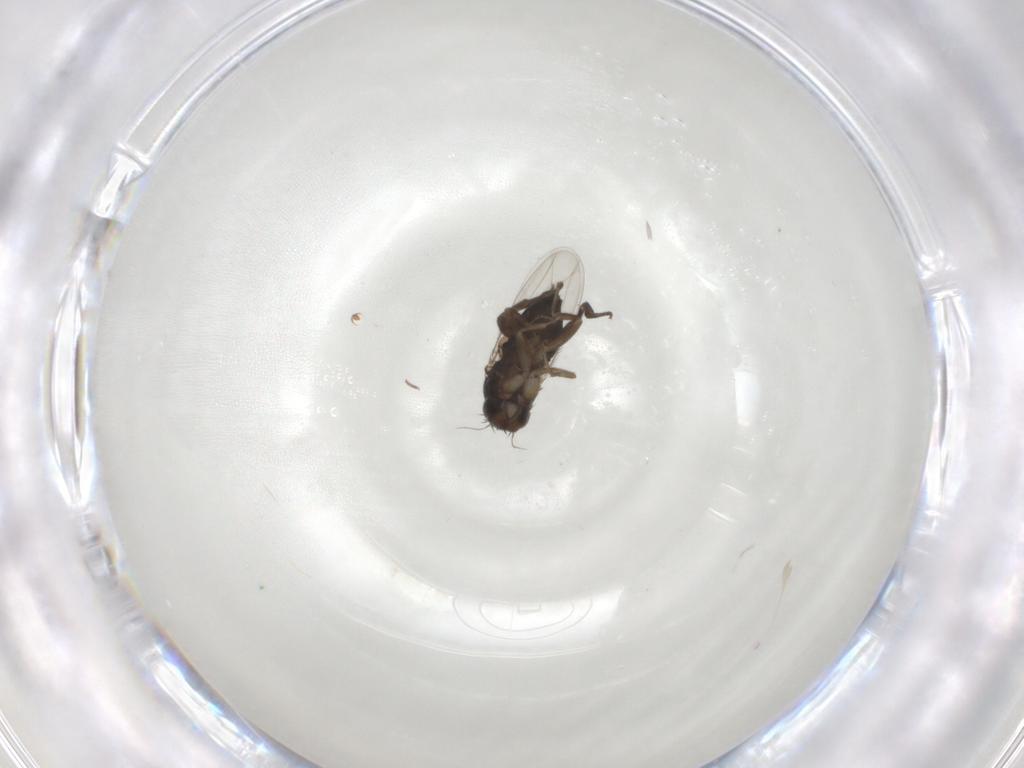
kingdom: Animalia
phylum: Arthropoda
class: Insecta
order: Diptera
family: Phoridae
